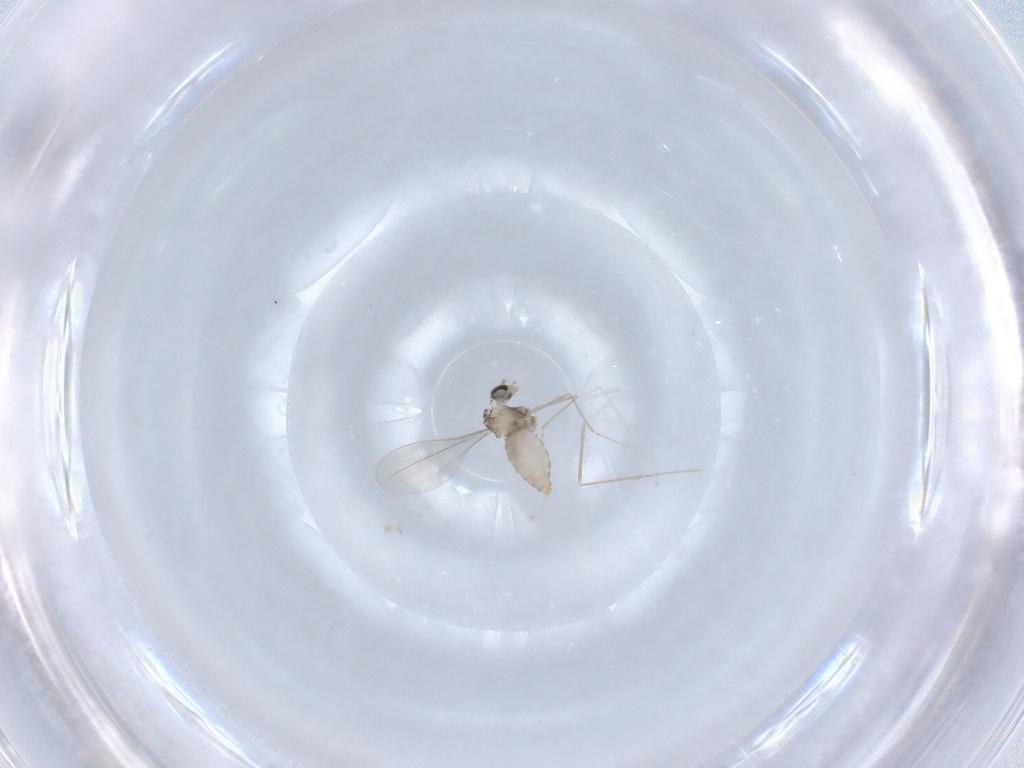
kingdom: Animalia
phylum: Arthropoda
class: Insecta
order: Diptera
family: Cecidomyiidae
